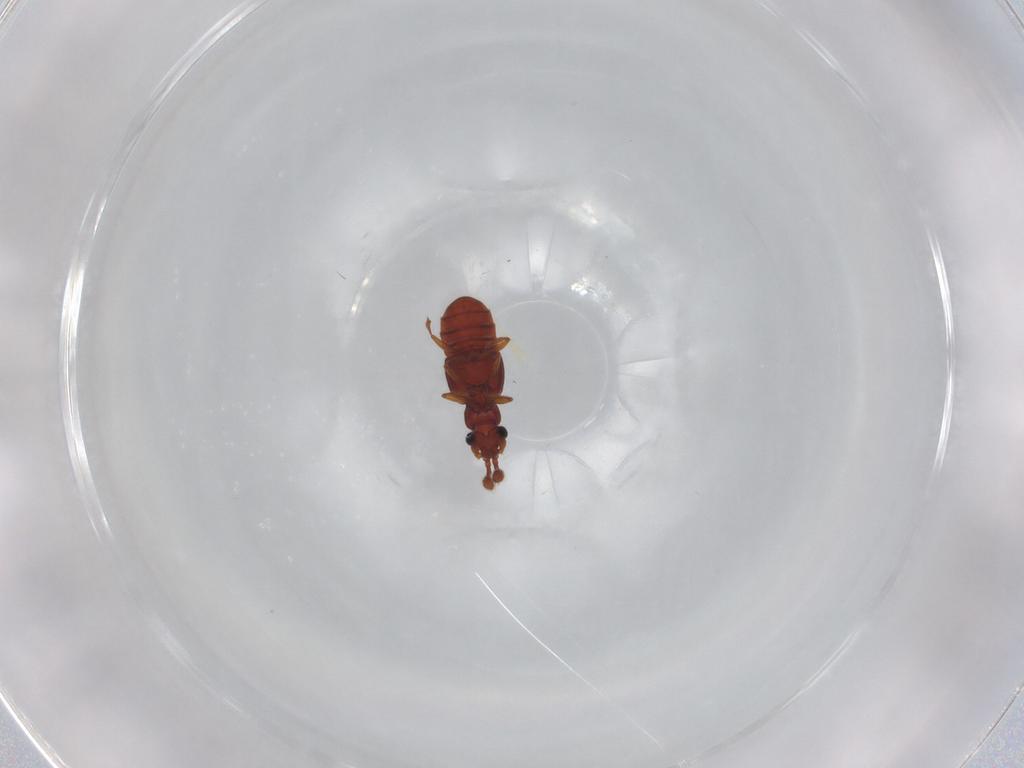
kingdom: Animalia
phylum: Arthropoda
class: Insecta
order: Coleoptera
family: Staphylinidae
